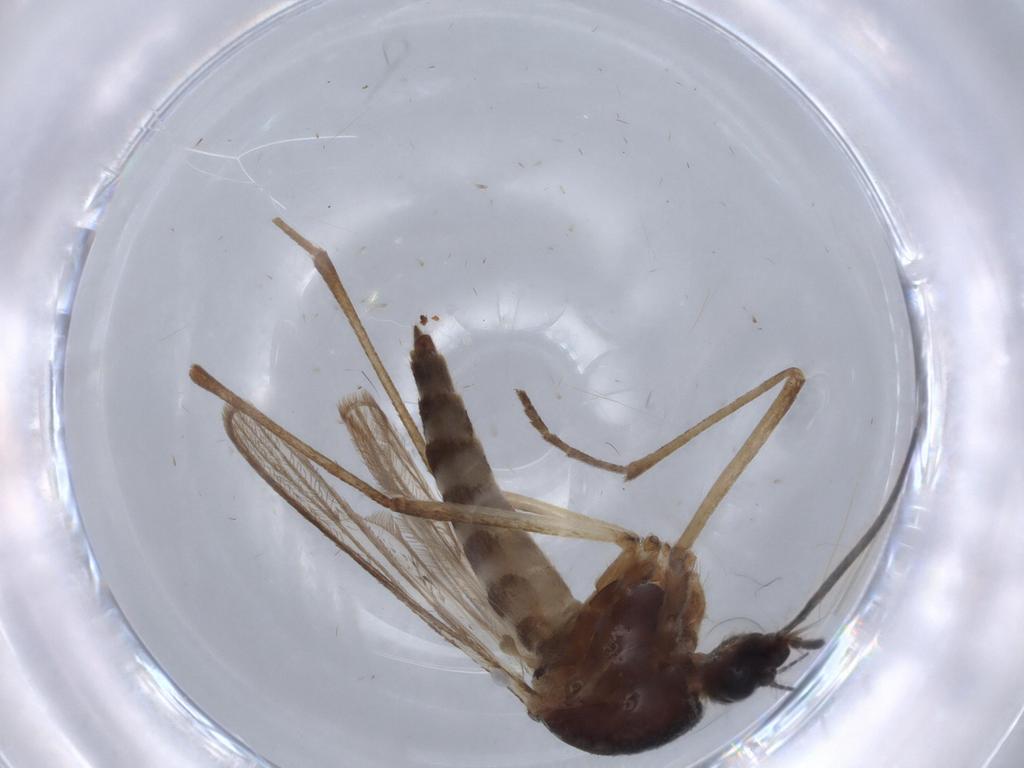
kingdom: Animalia
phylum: Arthropoda
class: Insecta
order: Diptera
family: Mycetophilidae
